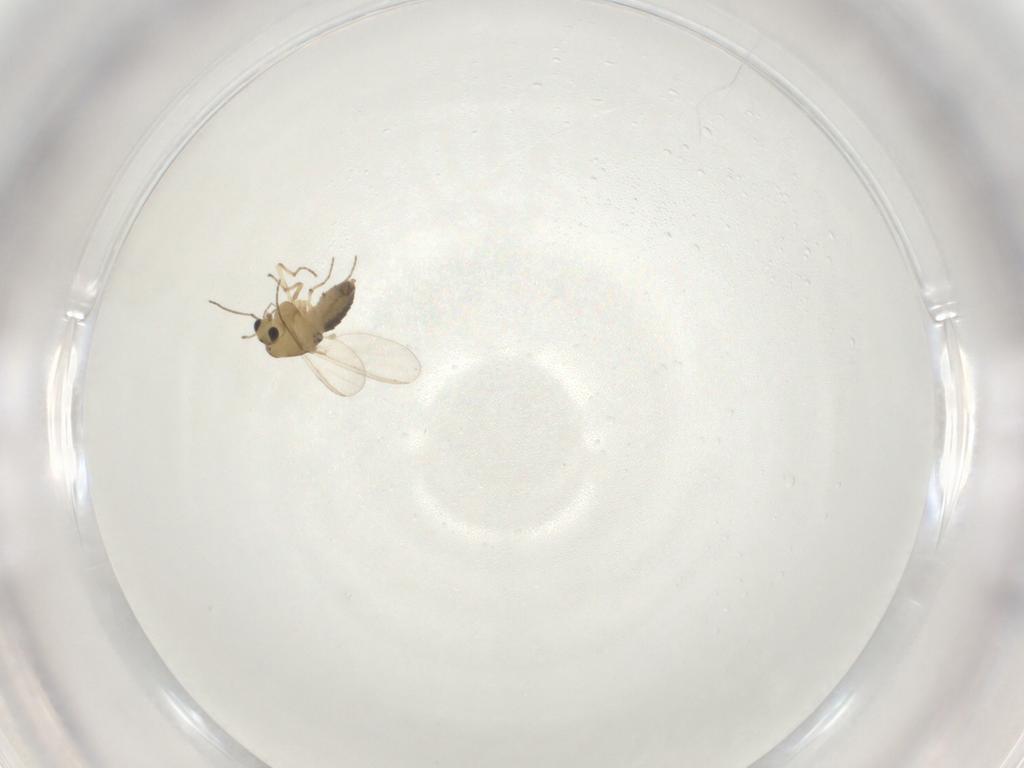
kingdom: Animalia
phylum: Arthropoda
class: Insecta
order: Diptera
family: Chironomidae
